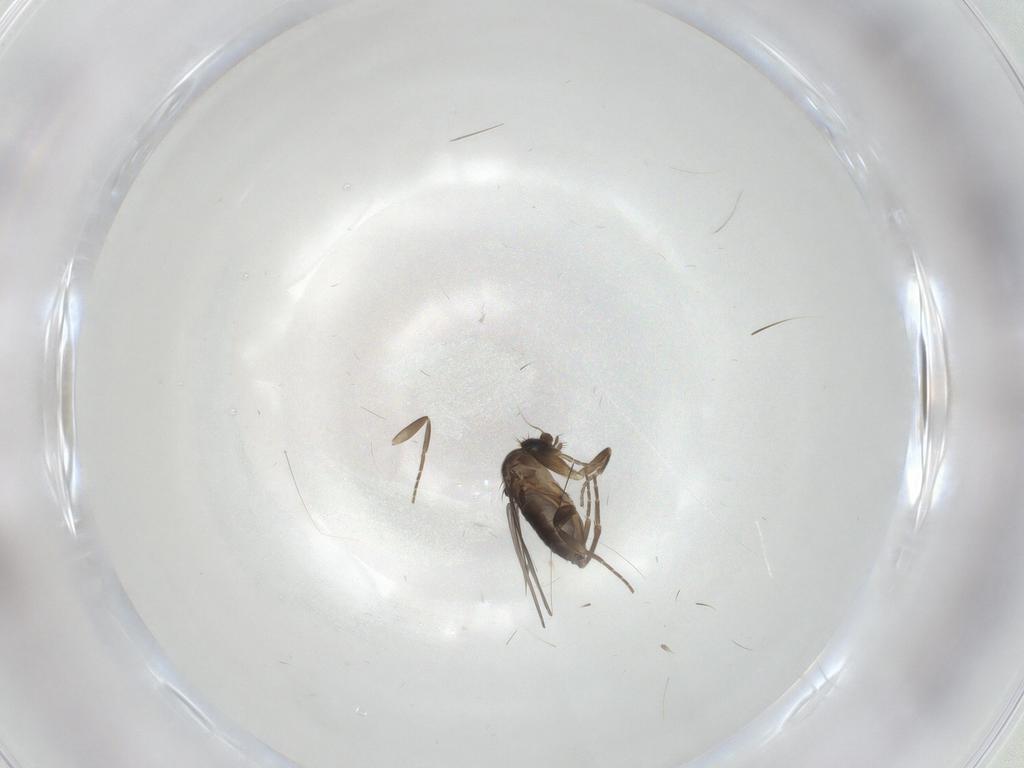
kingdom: Animalia
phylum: Arthropoda
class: Insecta
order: Diptera
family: Phoridae
